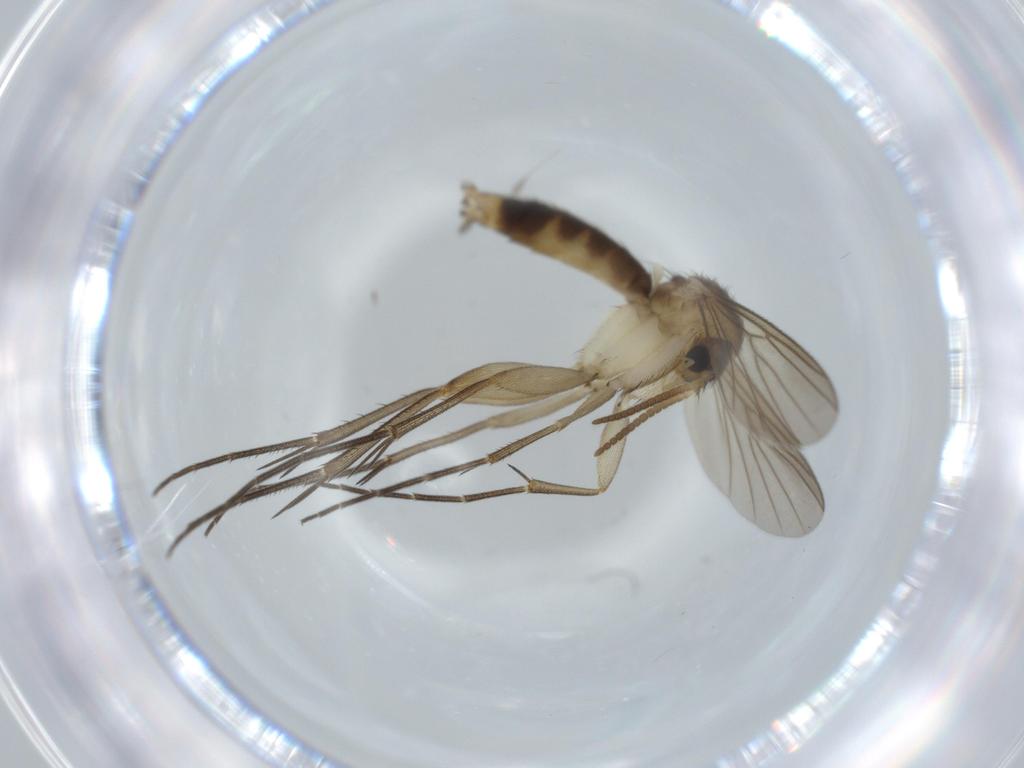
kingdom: Animalia
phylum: Arthropoda
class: Insecta
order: Diptera
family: Mycetophilidae
